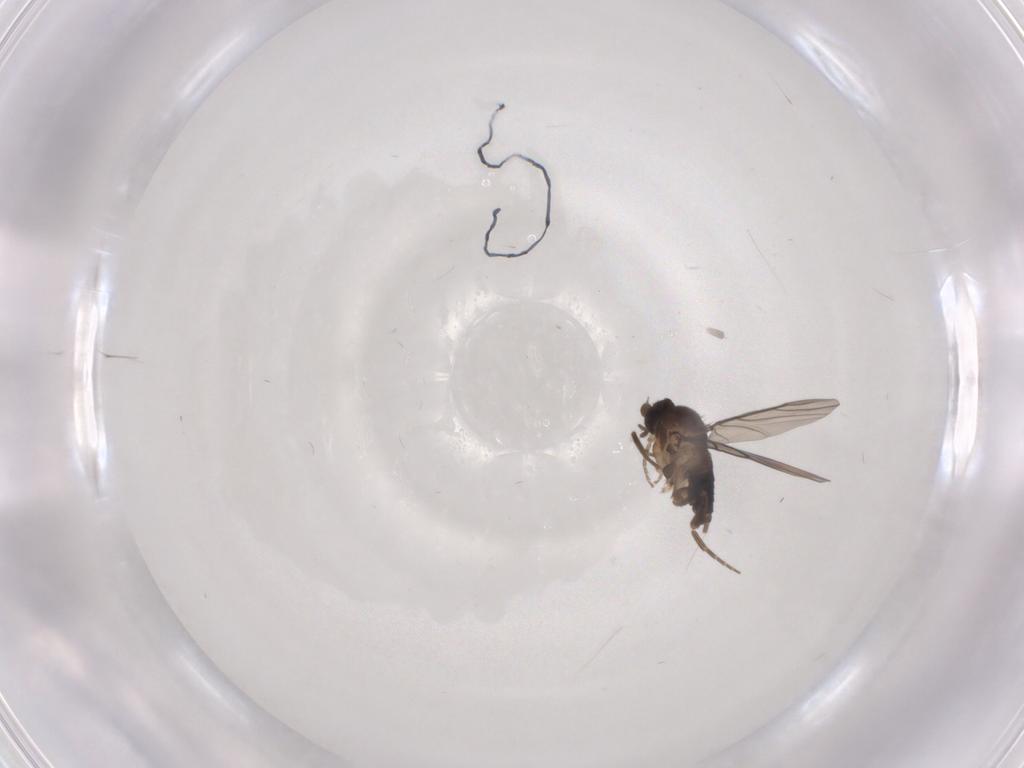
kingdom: Animalia
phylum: Arthropoda
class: Insecta
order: Diptera
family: Phoridae
